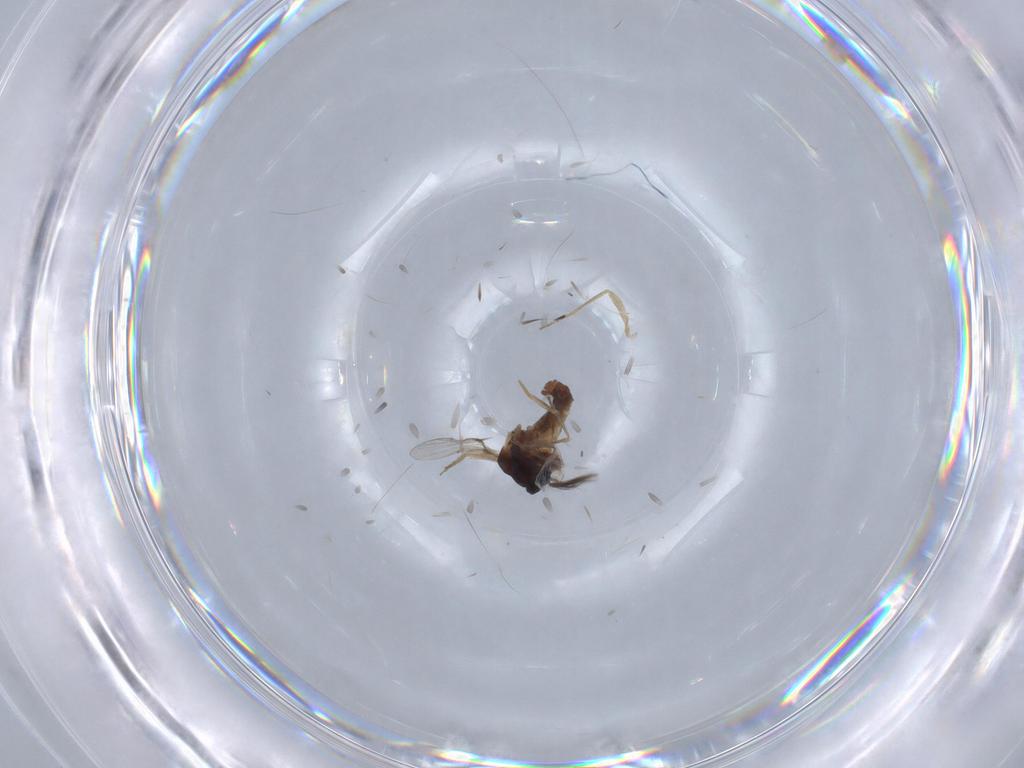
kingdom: Animalia
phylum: Arthropoda
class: Insecta
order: Diptera
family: Ceratopogonidae
